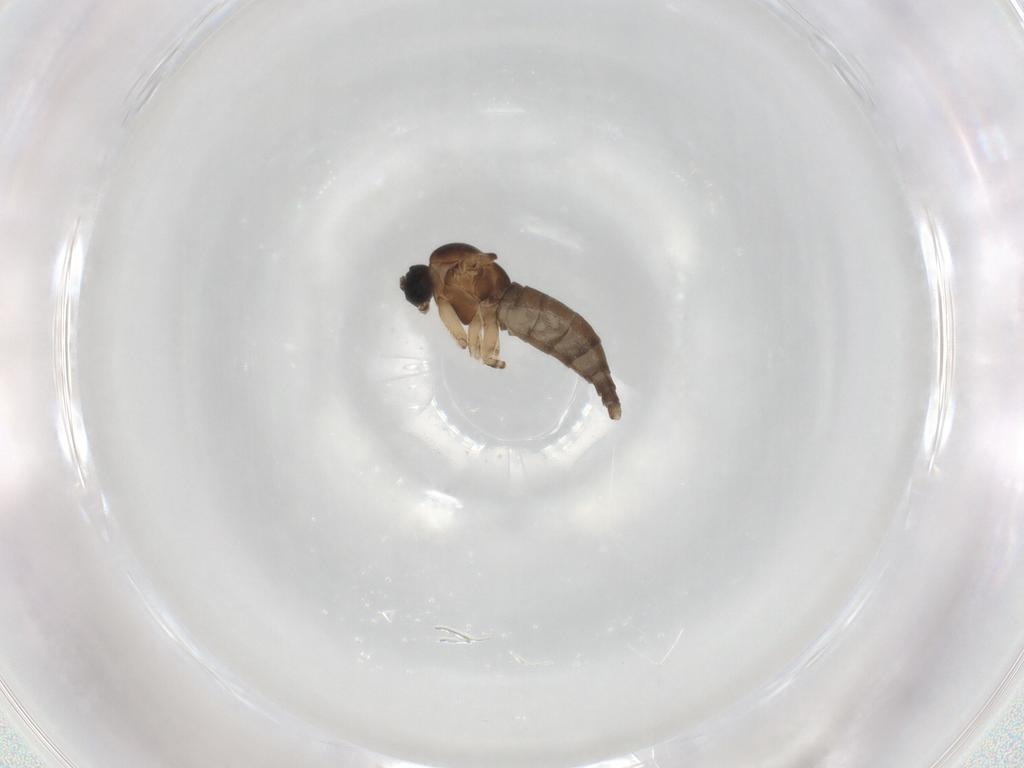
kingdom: Animalia
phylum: Arthropoda
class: Insecta
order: Diptera
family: Sciaridae
